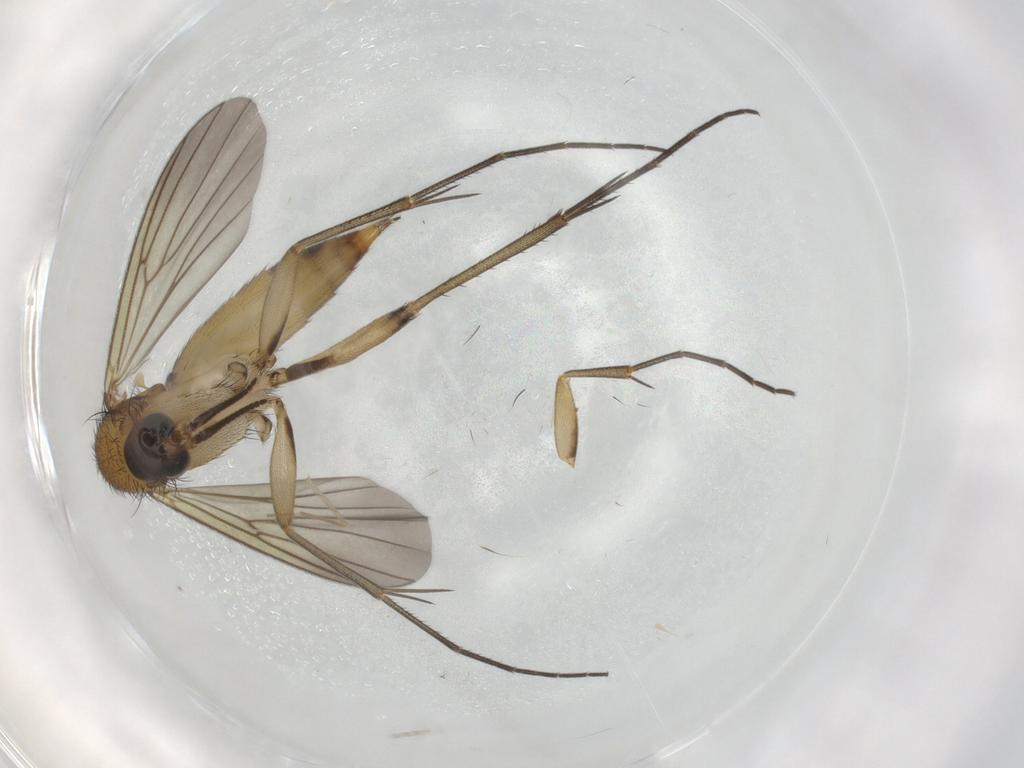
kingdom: Animalia
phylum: Arthropoda
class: Insecta
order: Diptera
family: Mycetophilidae
